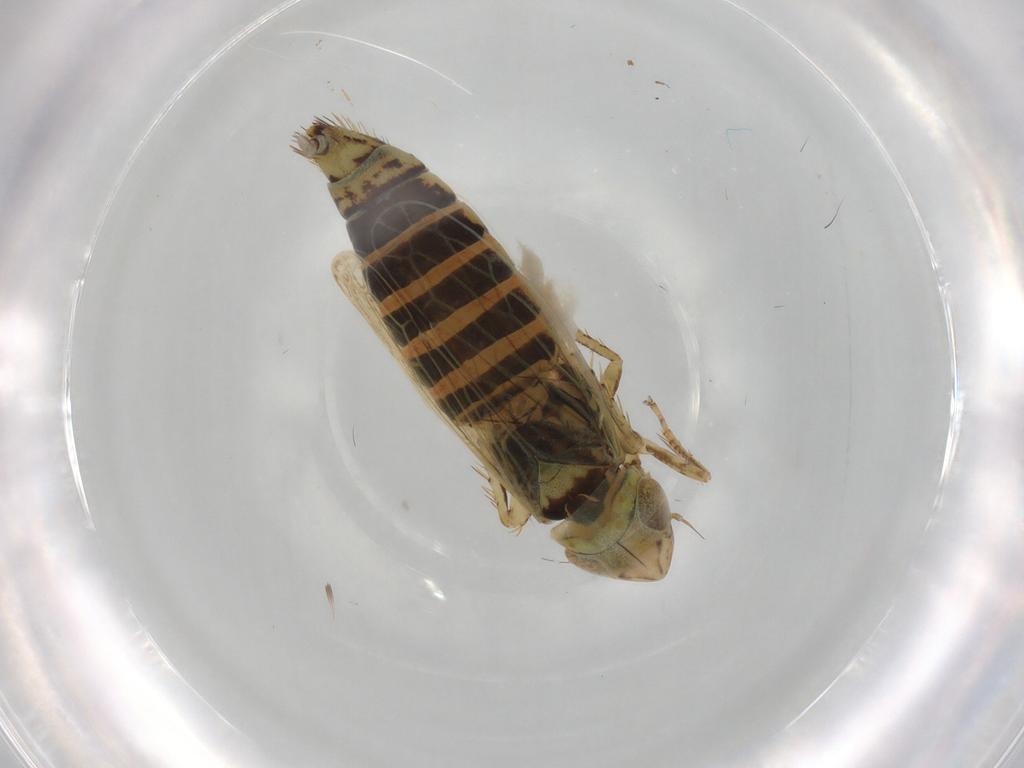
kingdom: Animalia
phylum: Arthropoda
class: Insecta
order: Hemiptera
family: Cicadellidae
